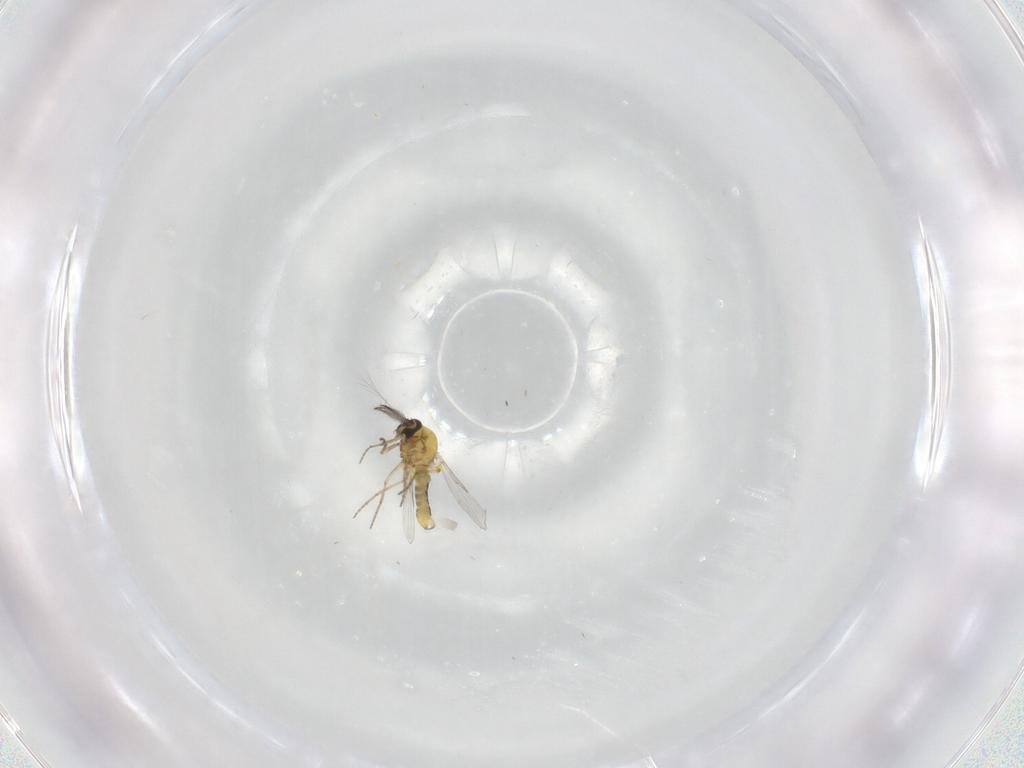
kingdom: Animalia
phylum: Arthropoda
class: Insecta
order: Diptera
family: Ceratopogonidae
